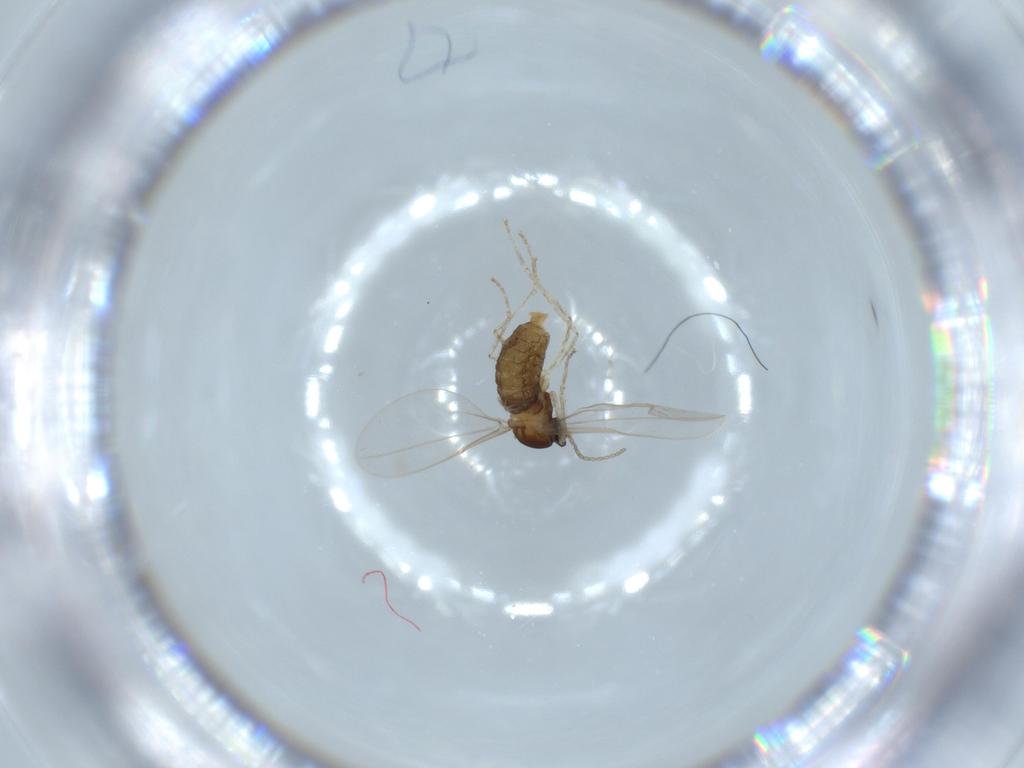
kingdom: Animalia
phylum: Arthropoda
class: Insecta
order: Diptera
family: Cecidomyiidae
